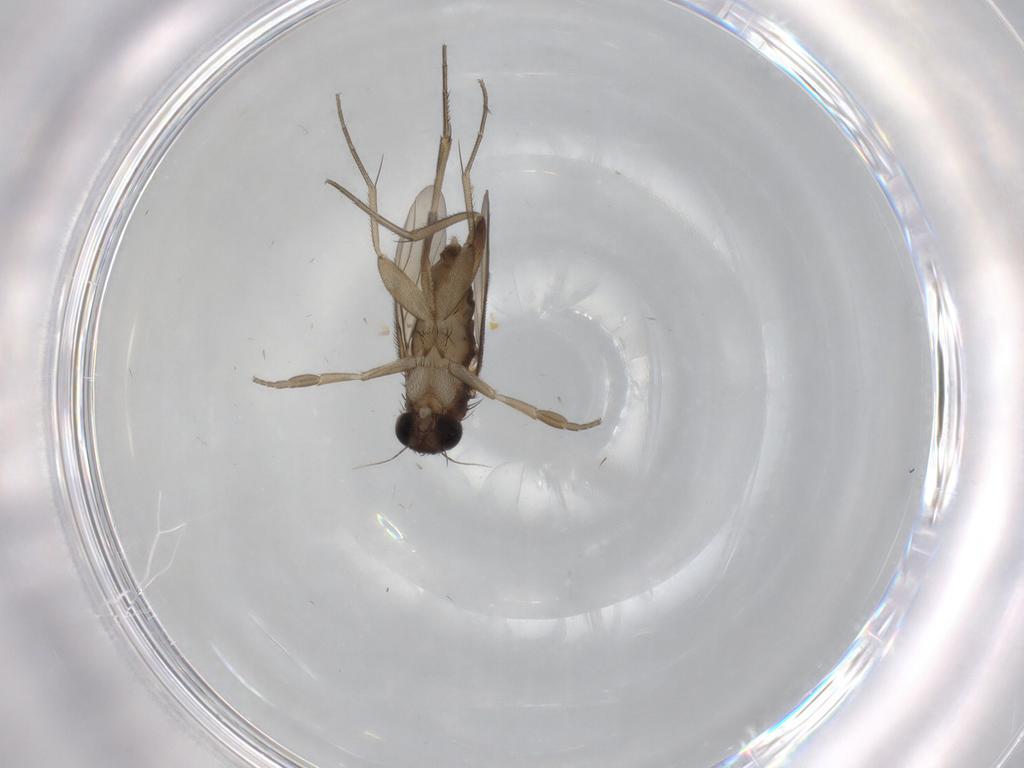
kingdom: Animalia
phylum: Arthropoda
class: Insecta
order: Diptera
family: Phoridae
